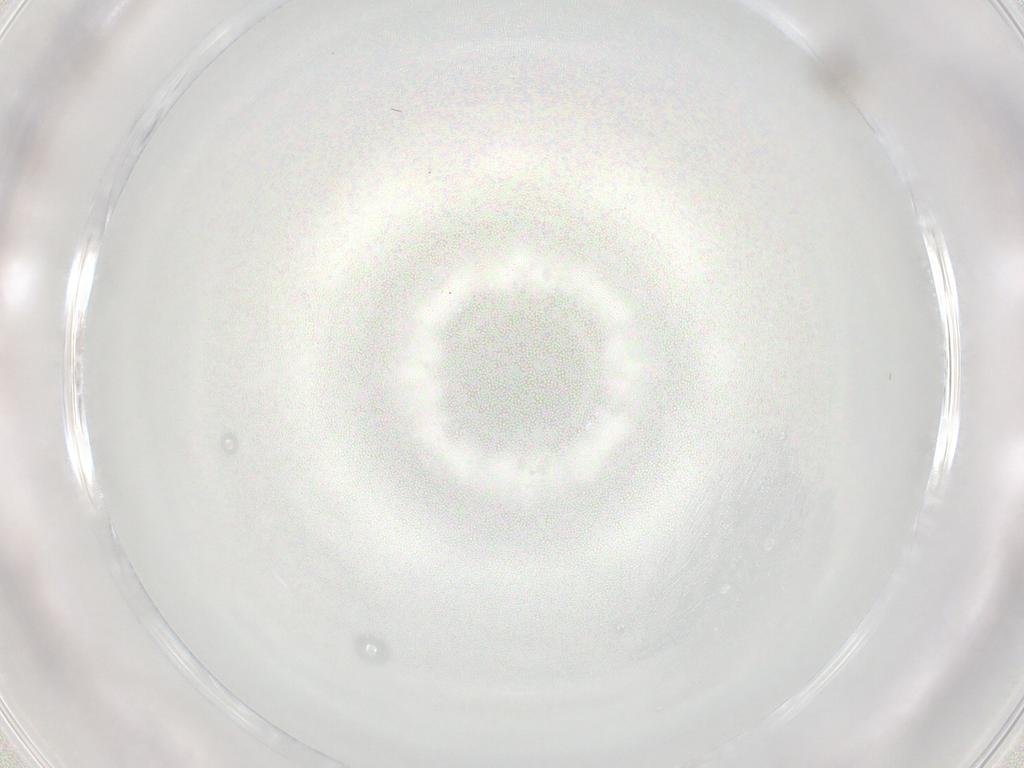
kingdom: Animalia
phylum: Arthropoda
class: Insecta
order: Diptera
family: Cecidomyiidae
